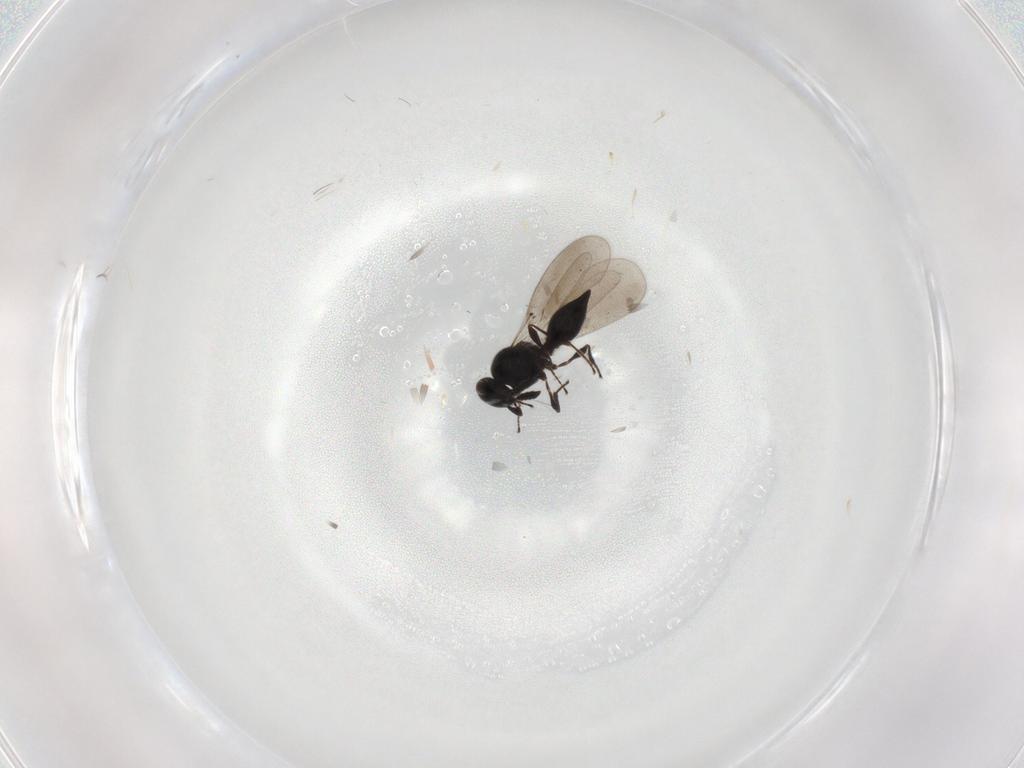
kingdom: Animalia
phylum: Arthropoda
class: Insecta
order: Hymenoptera
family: Platygastridae
